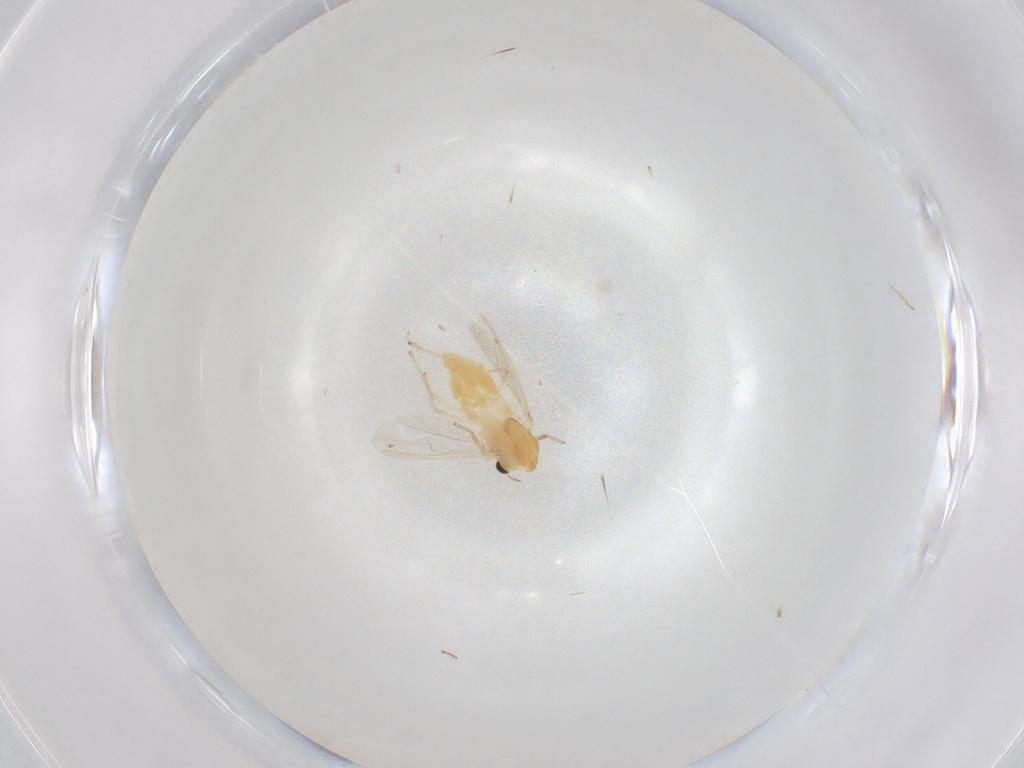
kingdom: Animalia
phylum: Arthropoda
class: Insecta
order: Diptera
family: Chironomidae
